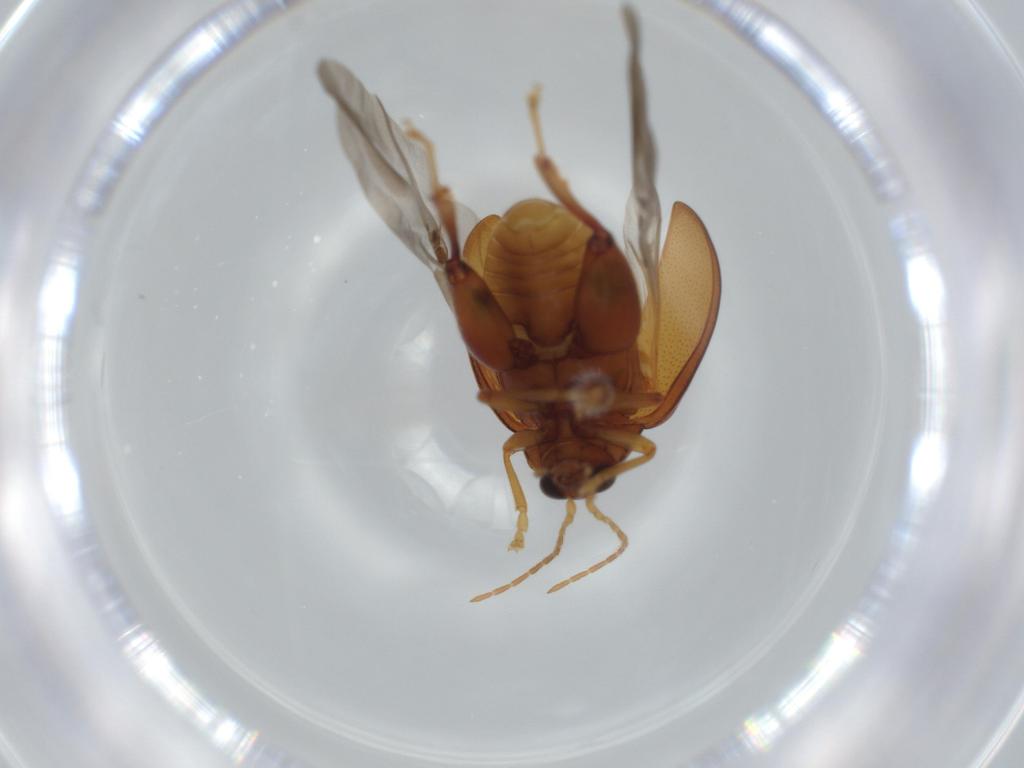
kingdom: Animalia
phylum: Arthropoda
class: Insecta
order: Coleoptera
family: Chrysomelidae
